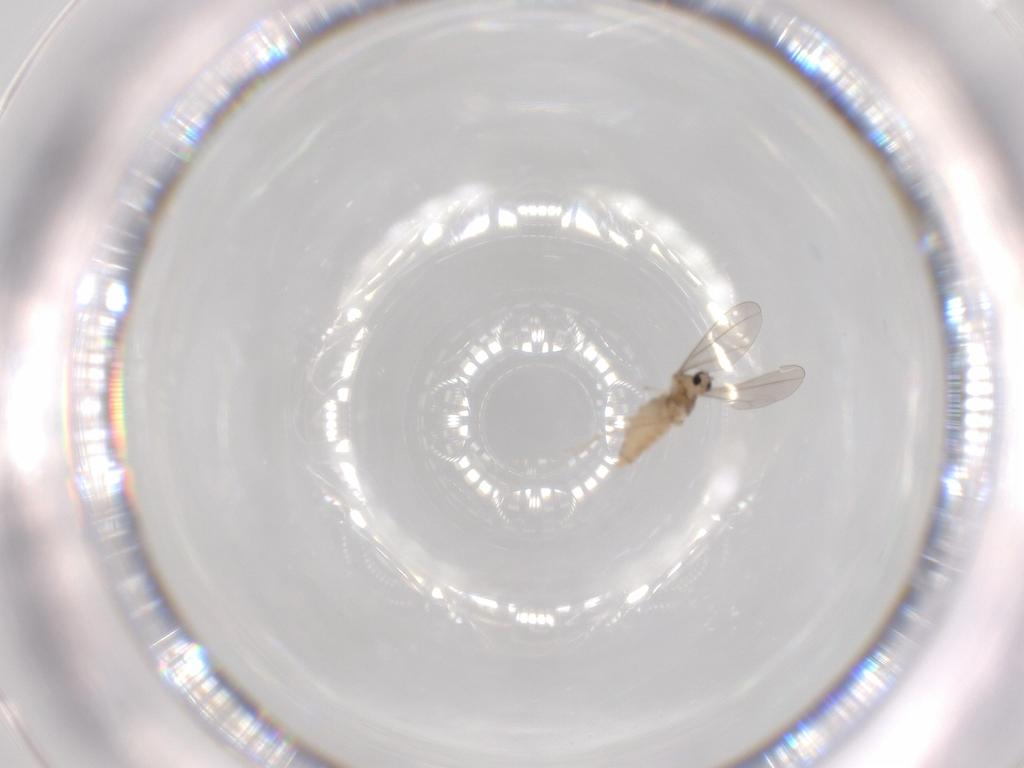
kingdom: Animalia
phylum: Arthropoda
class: Insecta
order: Diptera
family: Cecidomyiidae
